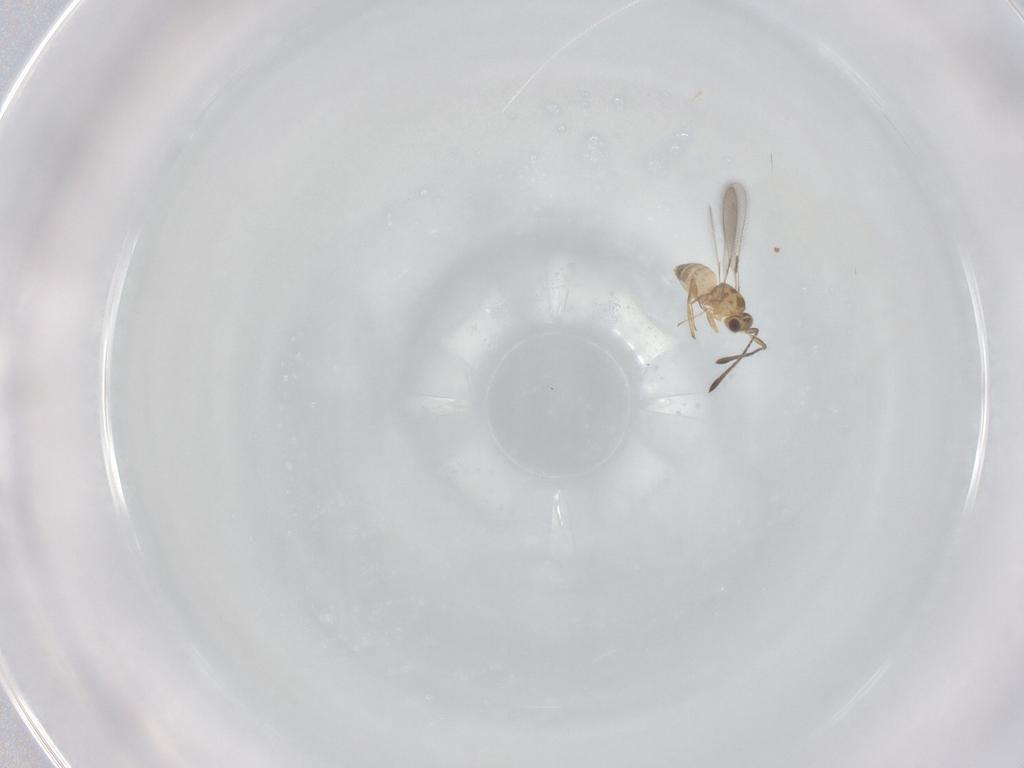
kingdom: Animalia
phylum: Arthropoda
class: Insecta
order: Hymenoptera
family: Mymaridae
